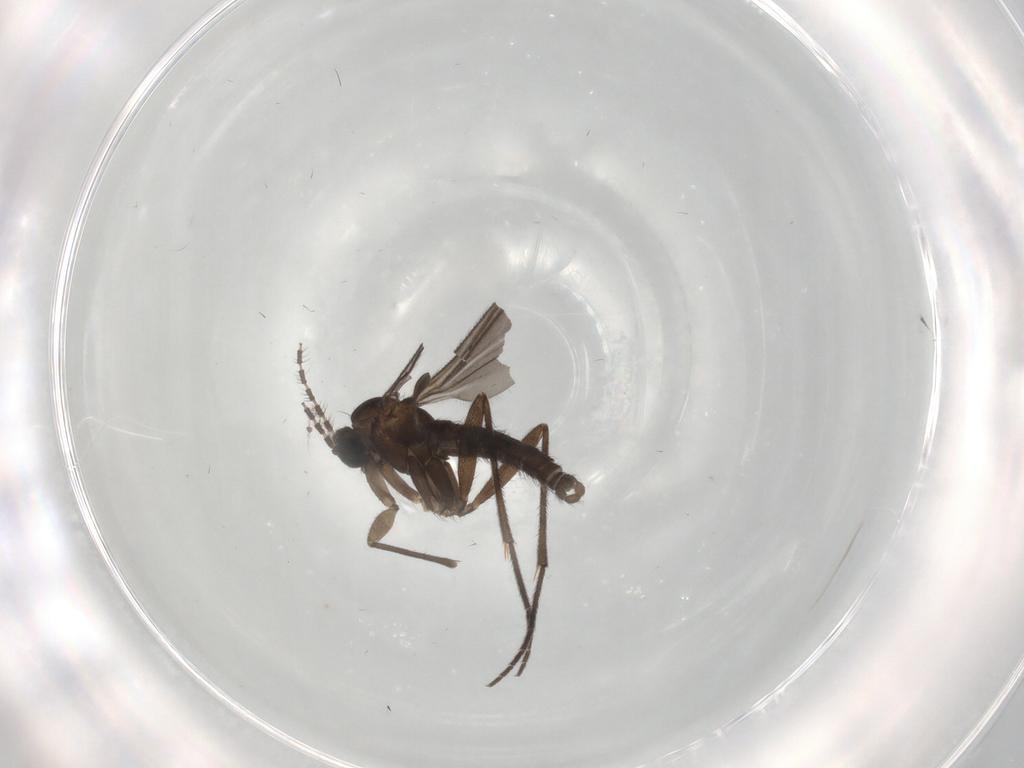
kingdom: Animalia
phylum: Arthropoda
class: Insecta
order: Diptera
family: Sciaridae
